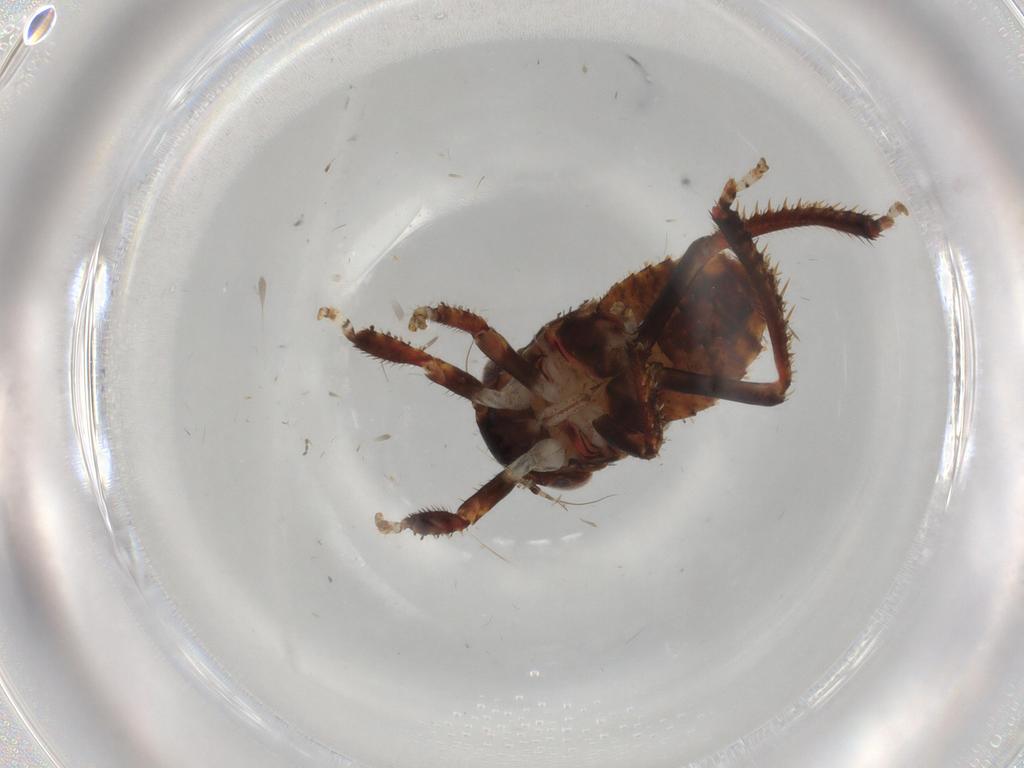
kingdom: Animalia
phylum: Arthropoda
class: Insecta
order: Hemiptera
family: Cicadellidae
